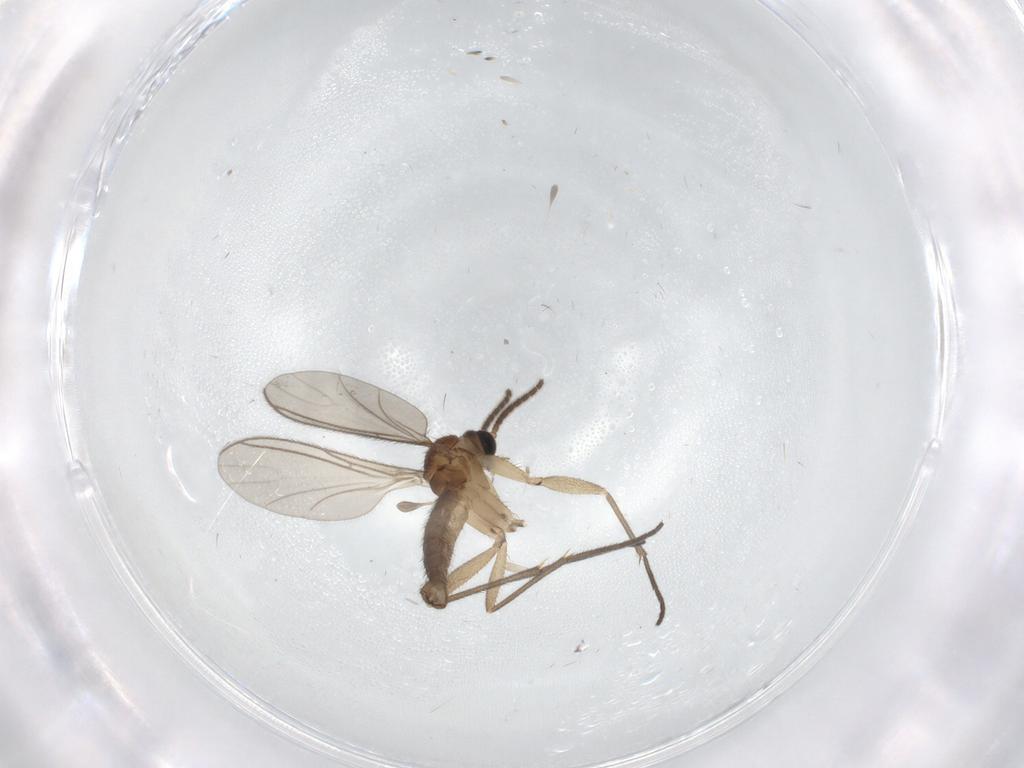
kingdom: Animalia
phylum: Arthropoda
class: Insecta
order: Diptera
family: Sciaridae
